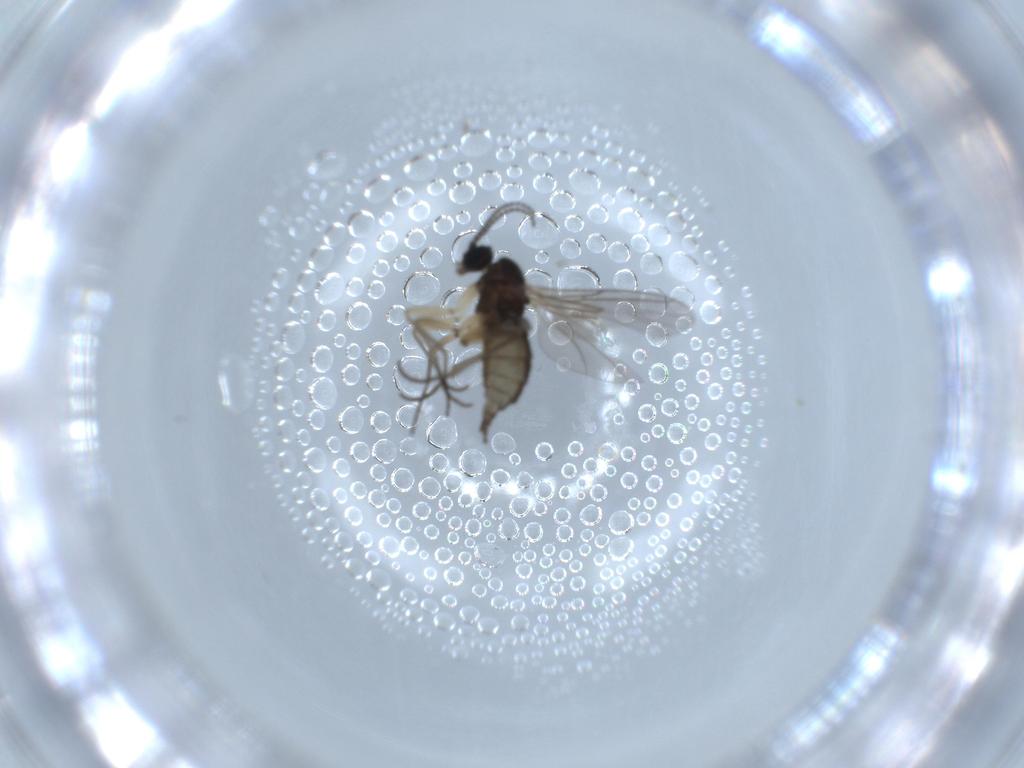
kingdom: Animalia
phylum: Arthropoda
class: Insecta
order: Diptera
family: Sciaridae
